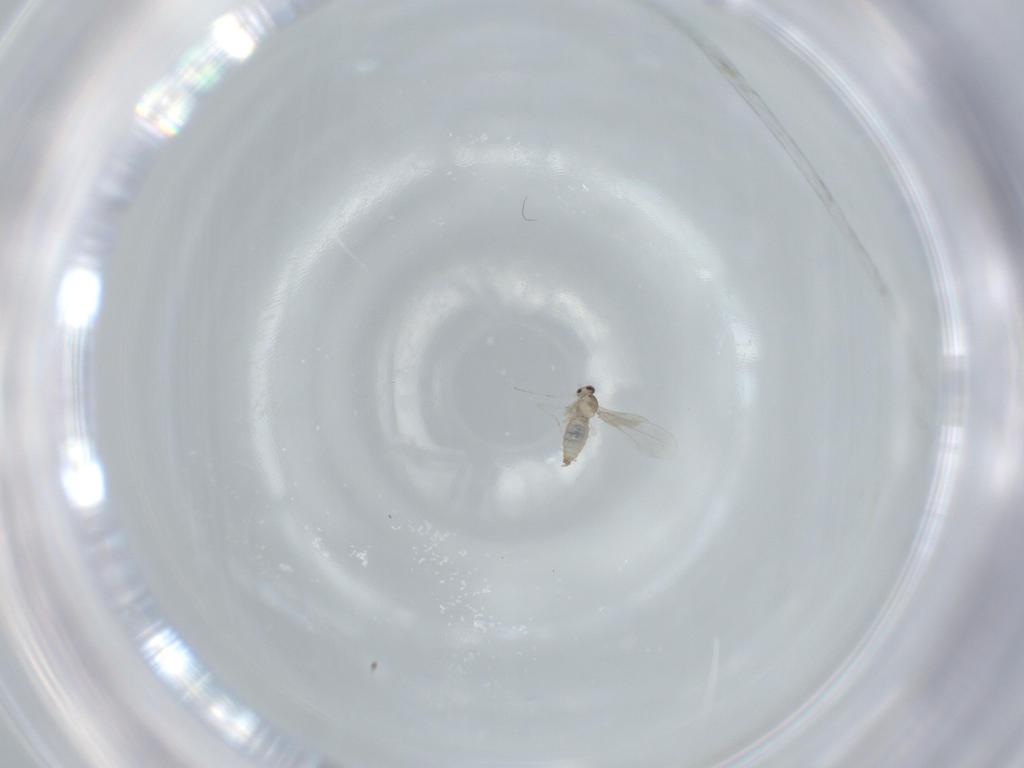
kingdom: Animalia
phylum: Arthropoda
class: Insecta
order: Diptera
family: Cecidomyiidae
